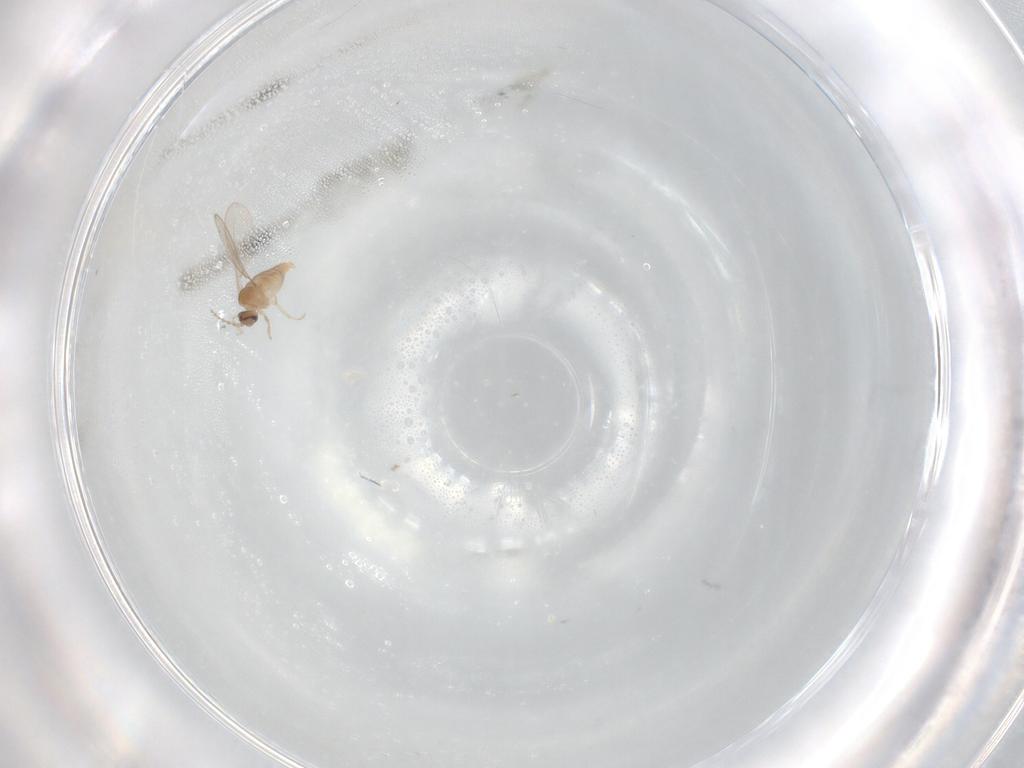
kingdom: Animalia
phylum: Arthropoda
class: Insecta
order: Diptera
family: Ceratopogonidae
